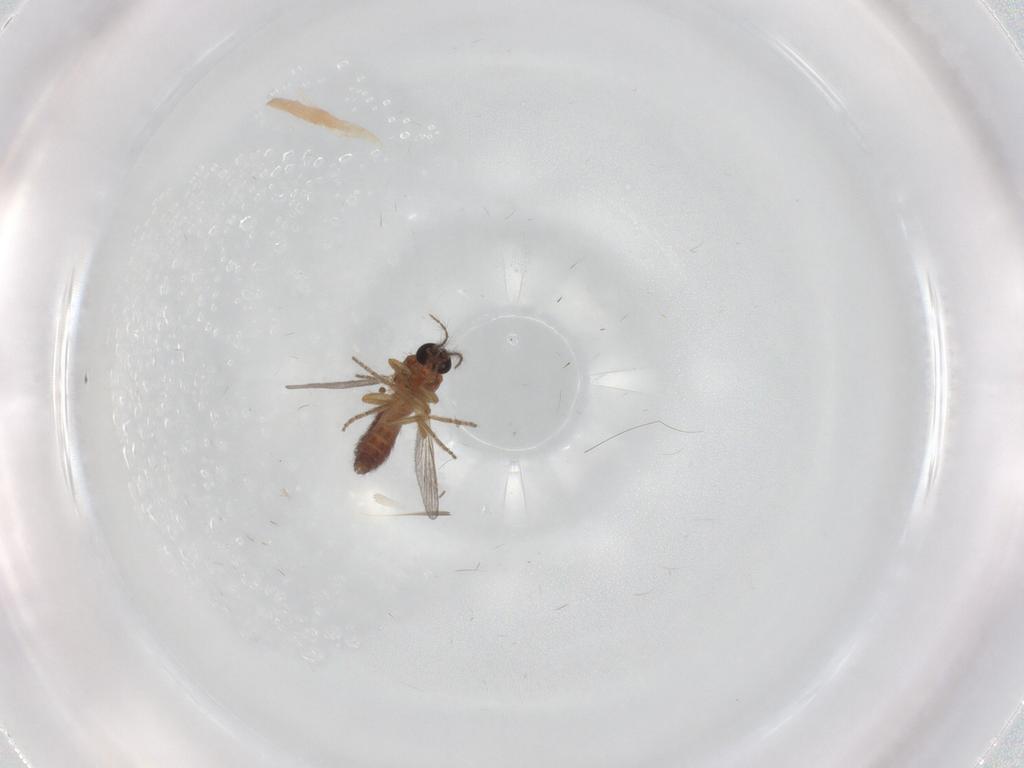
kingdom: Animalia
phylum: Arthropoda
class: Insecta
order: Diptera
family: Ceratopogonidae
